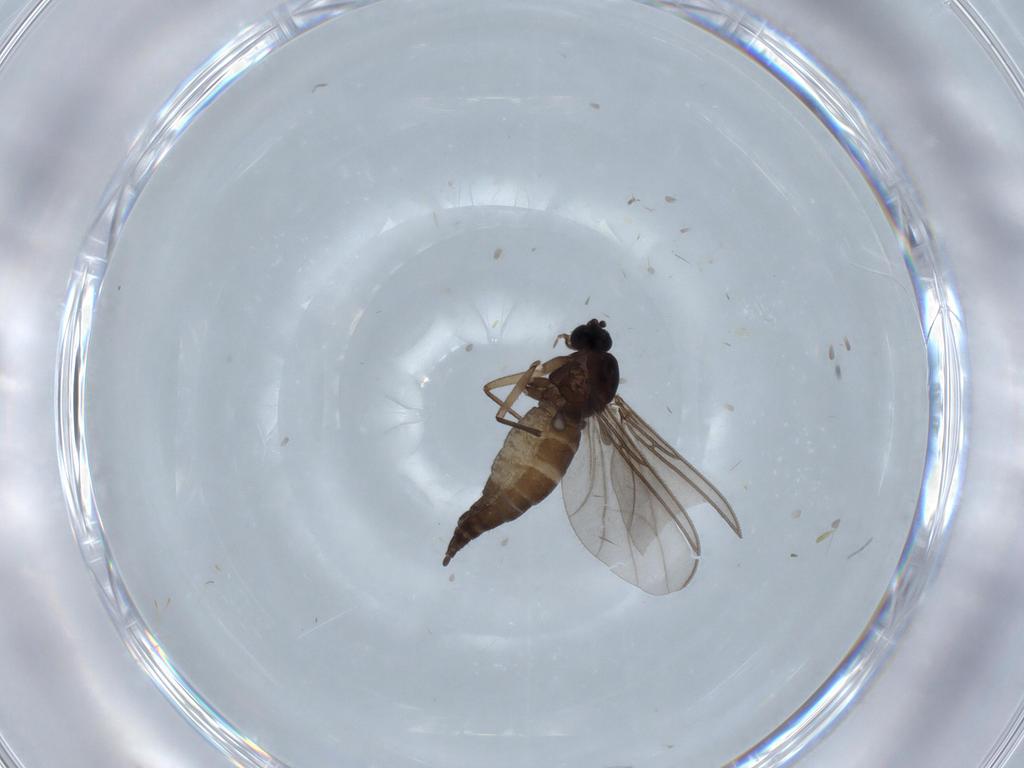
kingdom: Animalia
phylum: Arthropoda
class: Insecta
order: Diptera
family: Sciaridae
